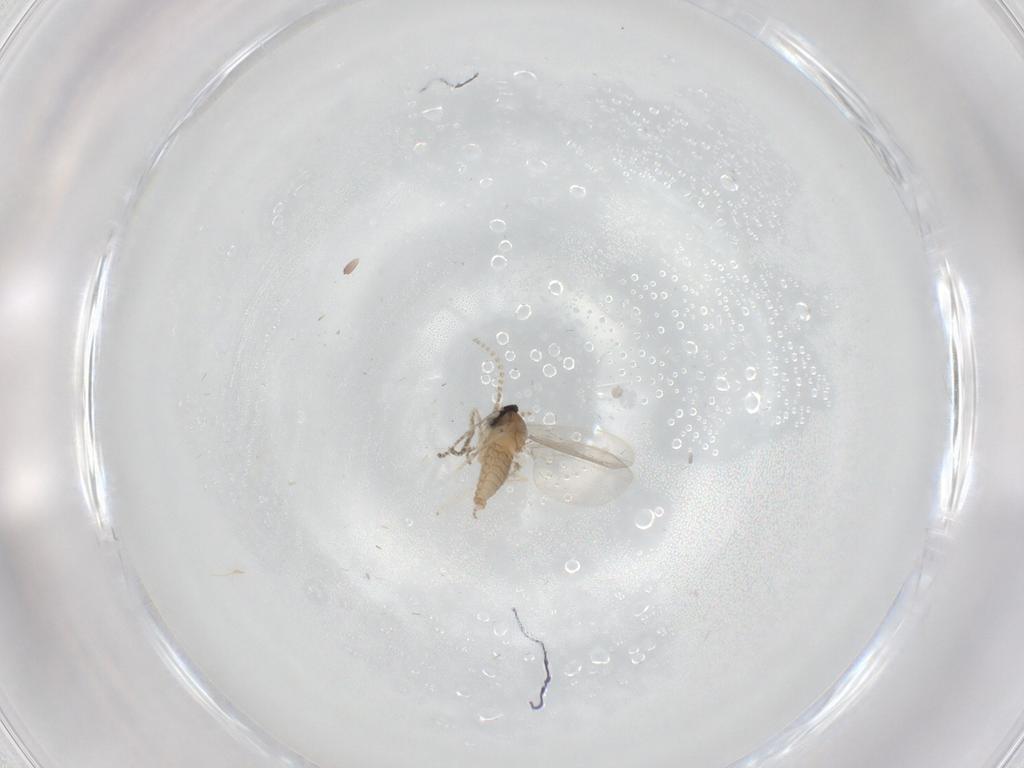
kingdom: Animalia
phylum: Arthropoda
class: Insecta
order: Diptera
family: Cecidomyiidae
